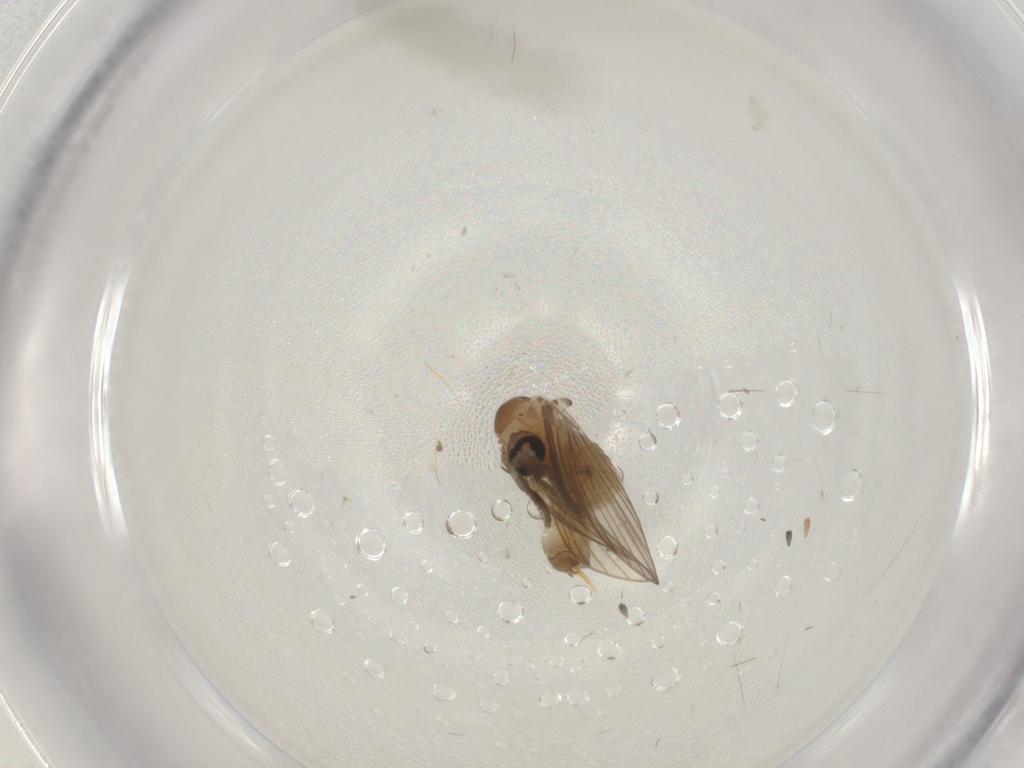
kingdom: Animalia
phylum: Arthropoda
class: Insecta
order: Diptera
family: Psychodidae
